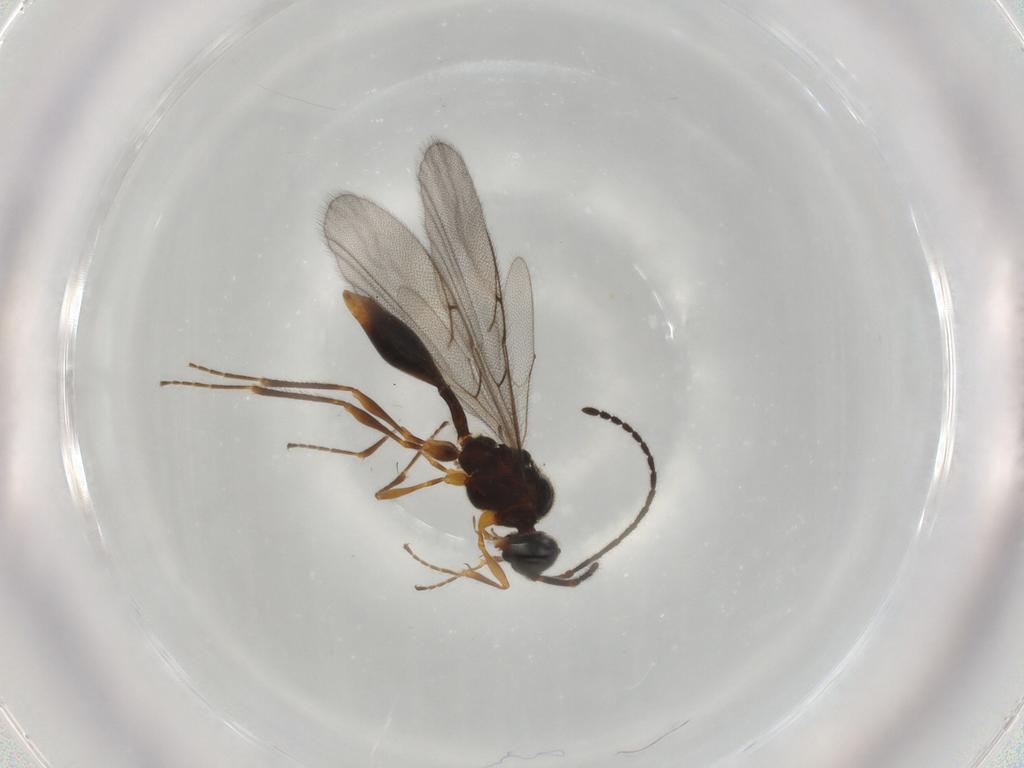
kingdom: Animalia
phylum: Arthropoda
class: Insecta
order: Hymenoptera
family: Diapriidae
